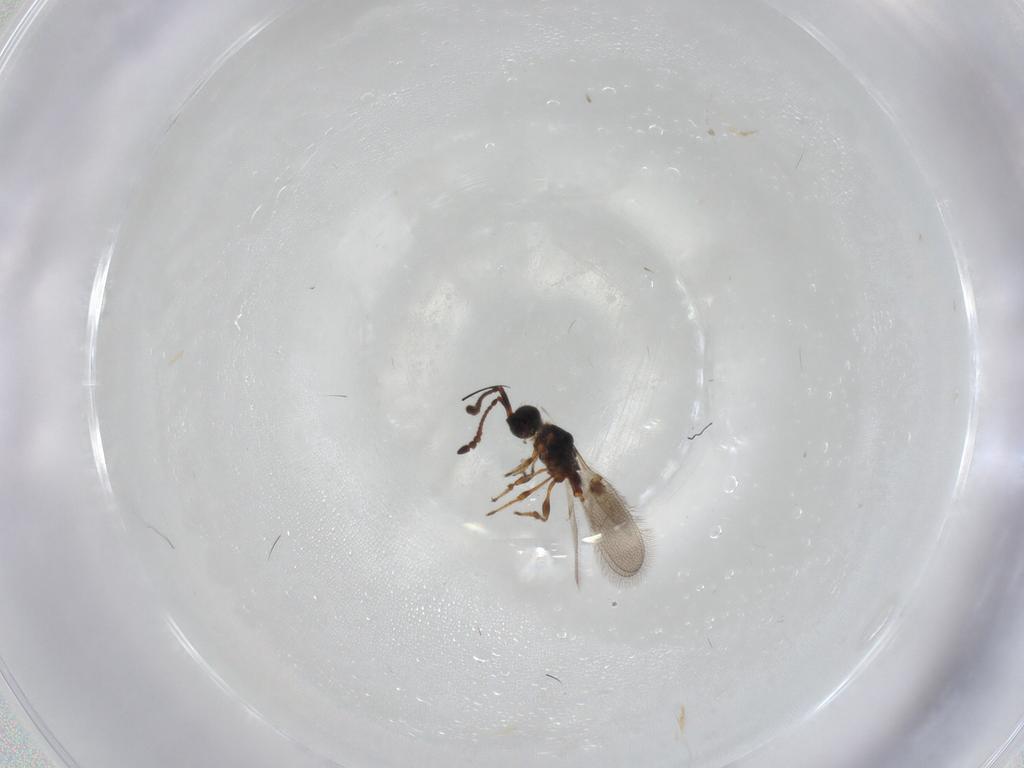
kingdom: Animalia
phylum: Arthropoda
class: Insecta
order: Hymenoptera
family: Diapriidae
